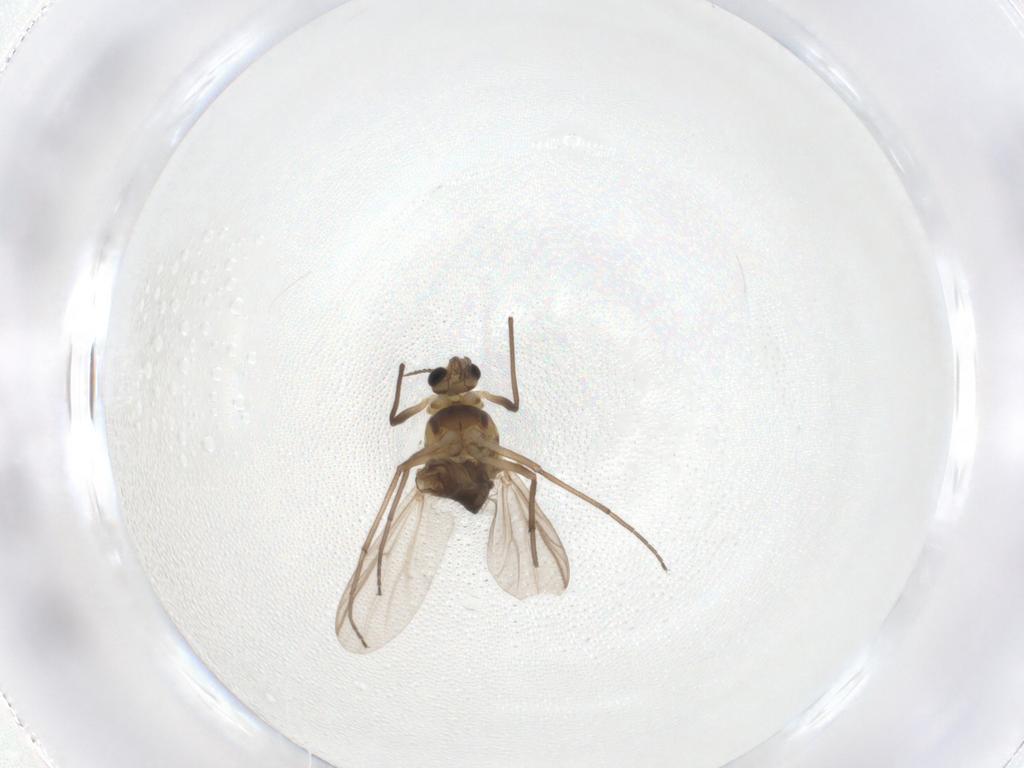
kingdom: Animalia
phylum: Arthropoda
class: Insecta
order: Diptera
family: Chironomidae
